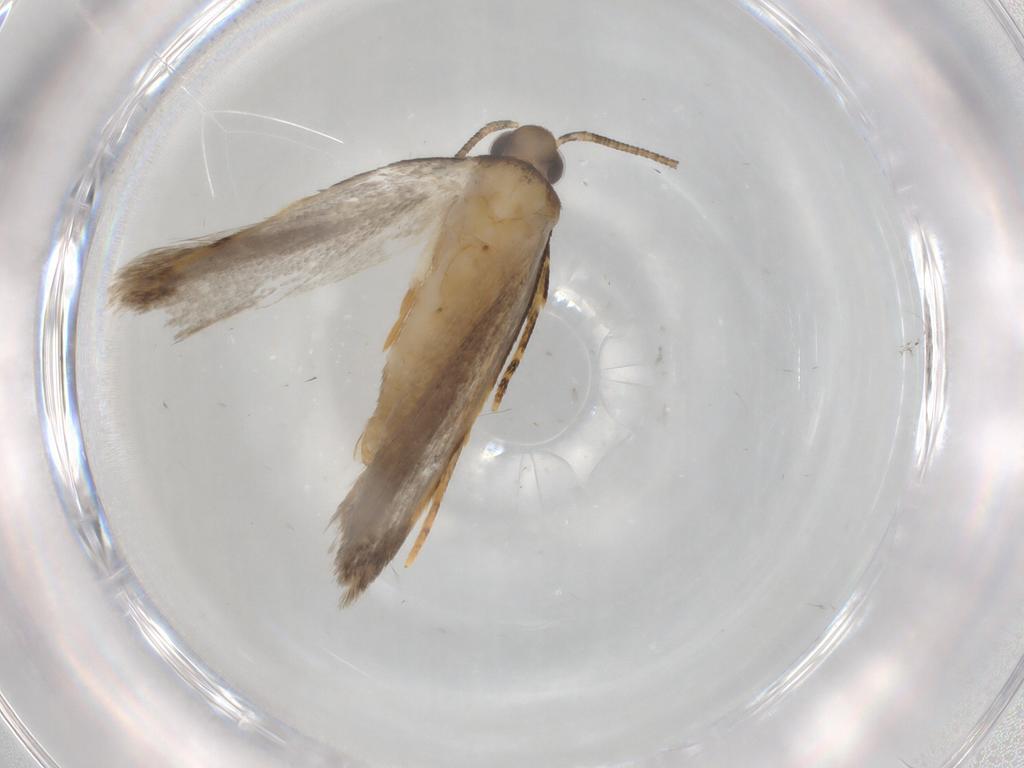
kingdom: Animalia
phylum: Arthropoda
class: Insecta
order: Lepidoptera
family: Autostichidae
